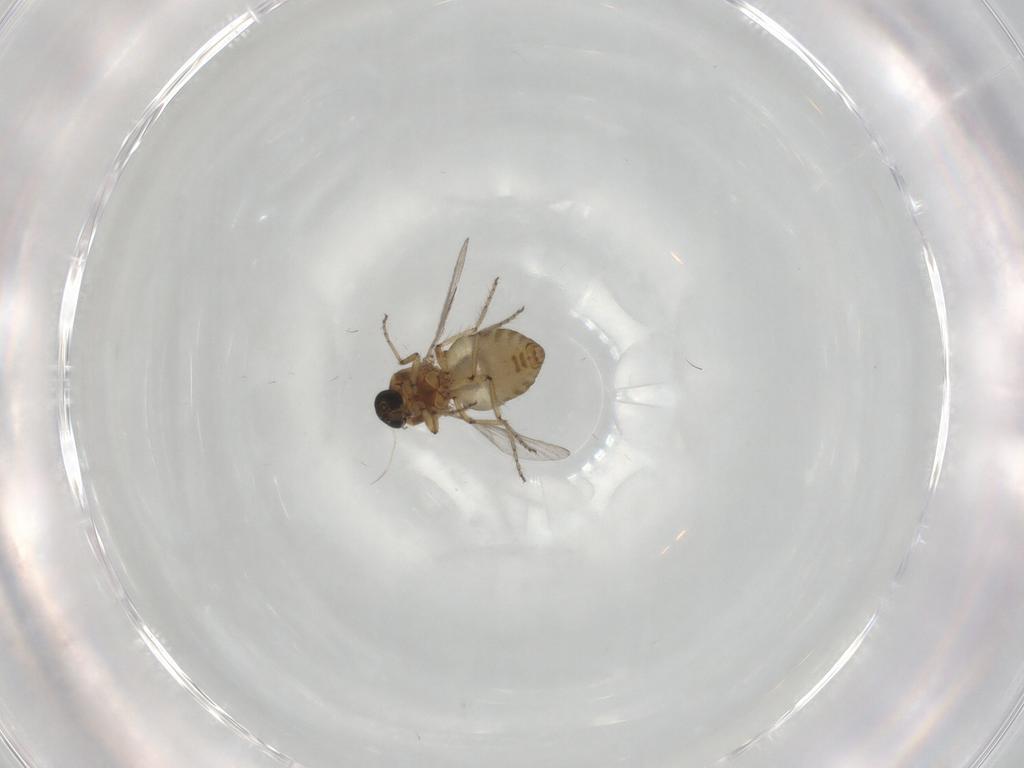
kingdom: Animalia
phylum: Arthropoda
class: Insecta
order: Diptera
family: Ceratopogonidae
